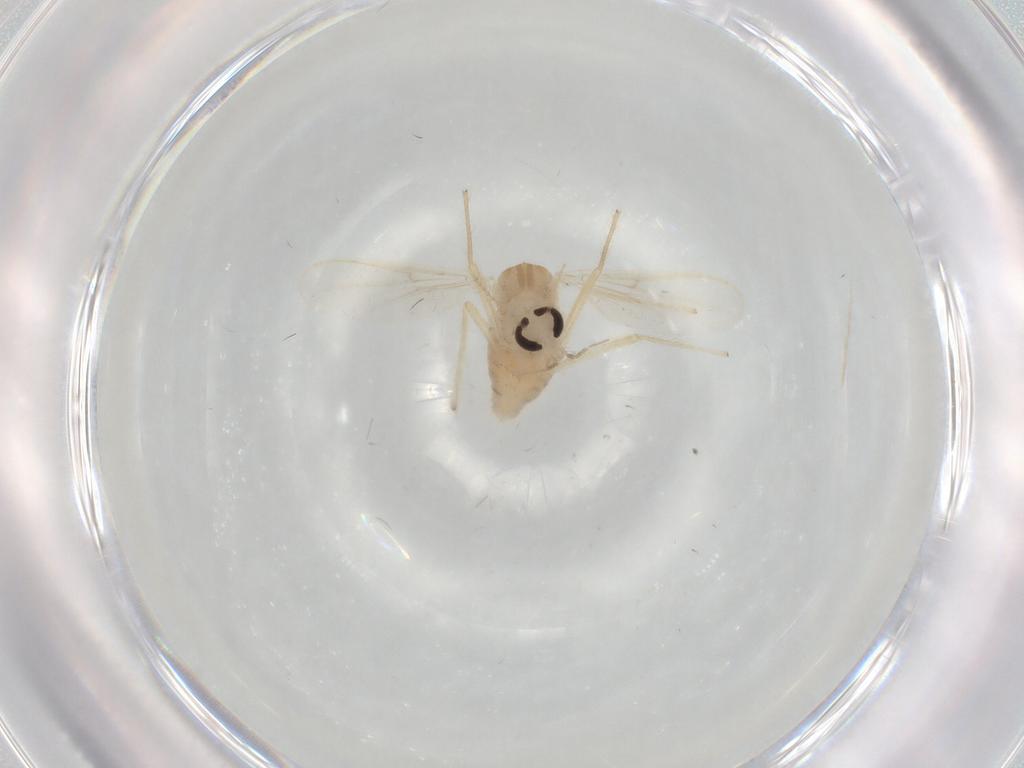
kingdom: Animalia
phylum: Arthropoda
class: Insecta
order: Diptera
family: Chironomidae
